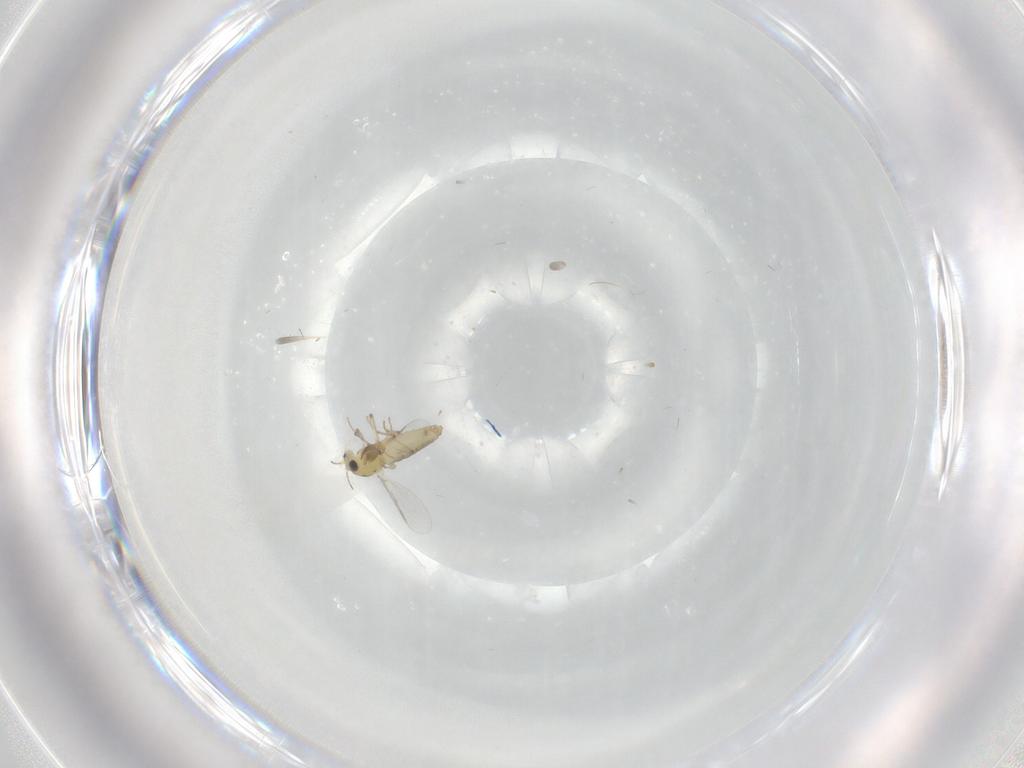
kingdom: Animalia
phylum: Arthropoda
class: Insecta
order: Diptera
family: Chironomidae
